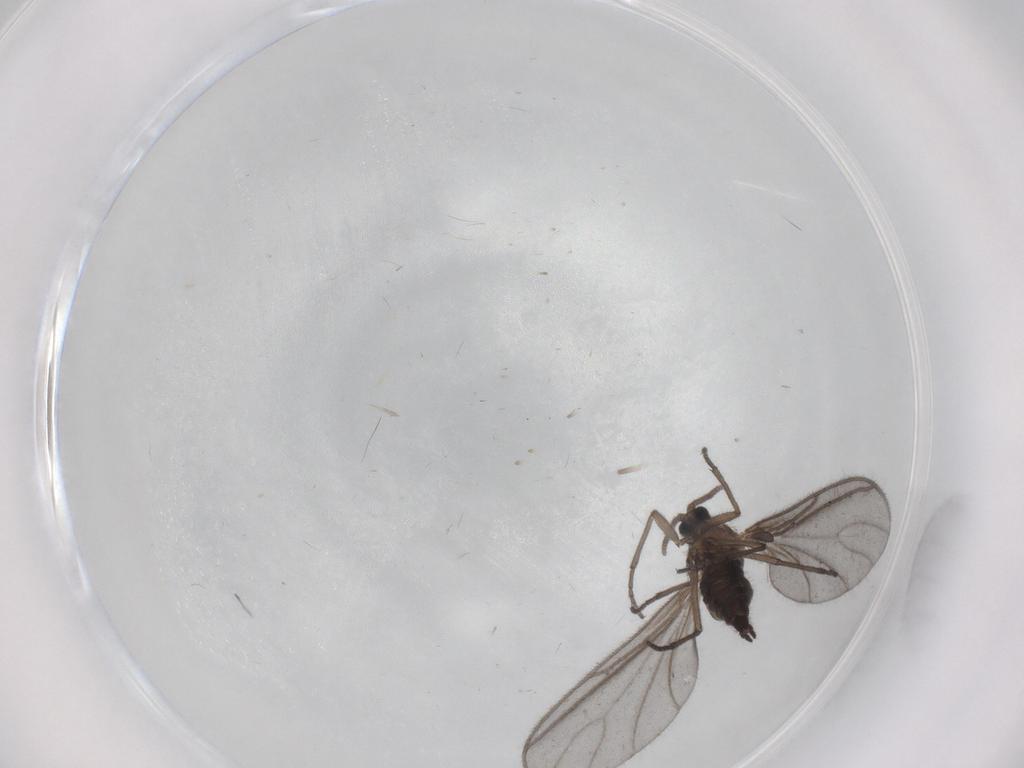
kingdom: Animalia
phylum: Arthropoda
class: Insecta
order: Diptera
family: Sciaridae
